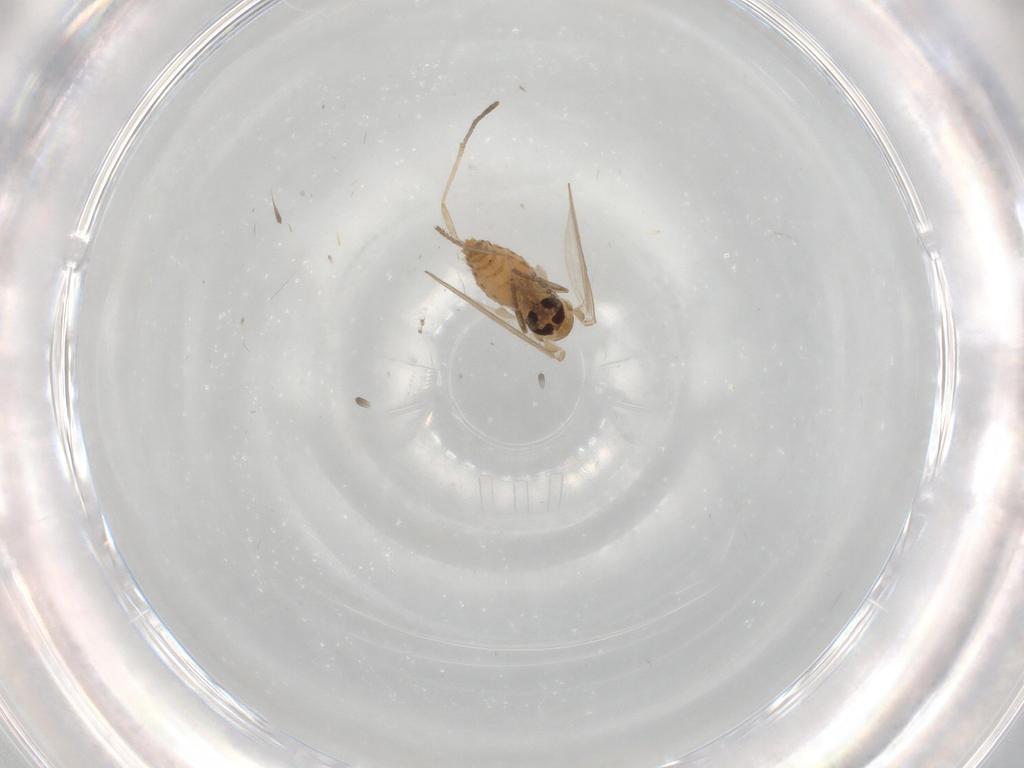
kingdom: Animalia
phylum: Arthropoda
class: Insecta
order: Diptera
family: Psychodidae
